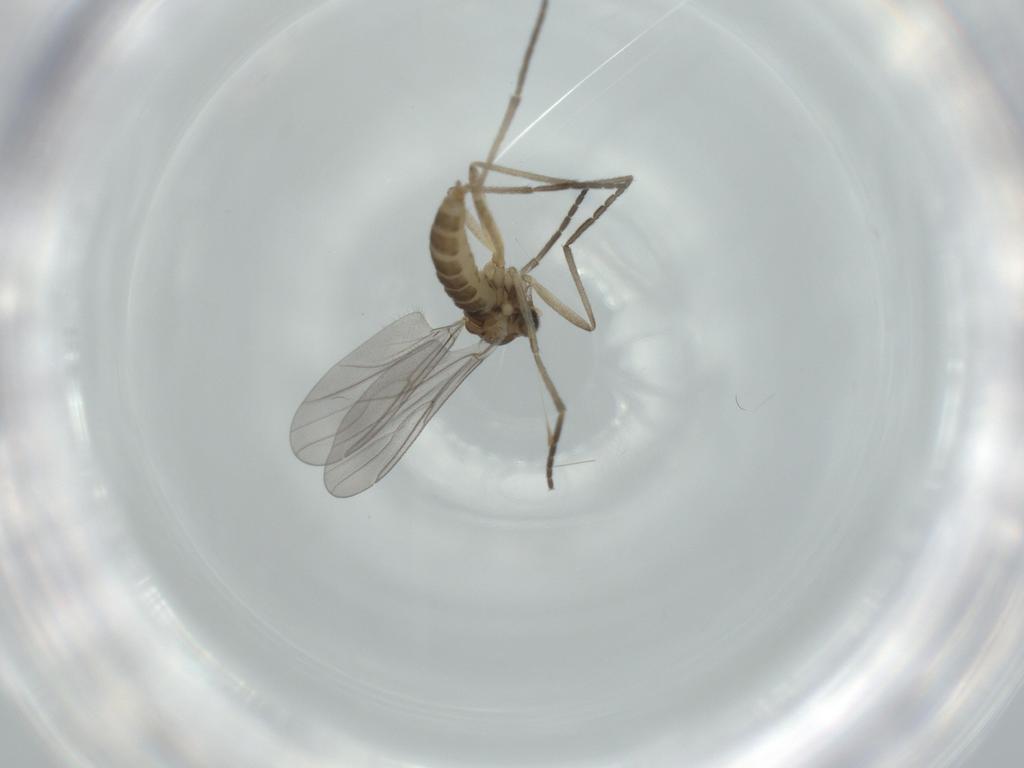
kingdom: Animalia
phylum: Arthropoda
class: Insecta
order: Diptera
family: Cecidomyiidae
